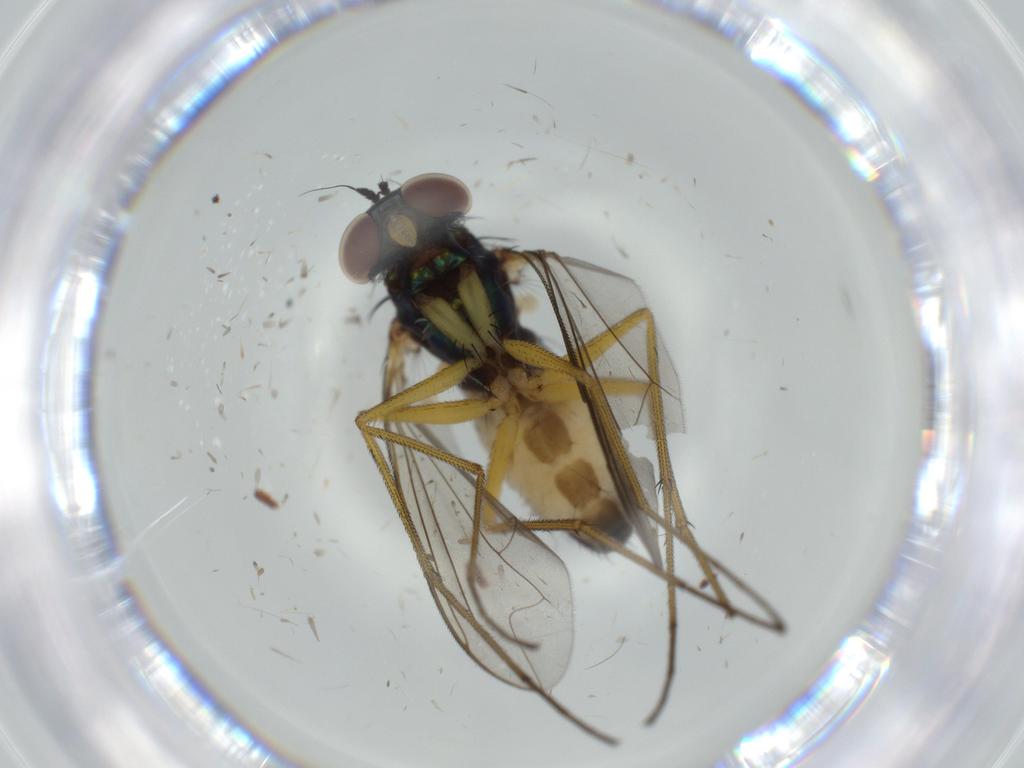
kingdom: Animalia
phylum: Arthropoda
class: Insecta
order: Diptera
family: Dolichopodidae
